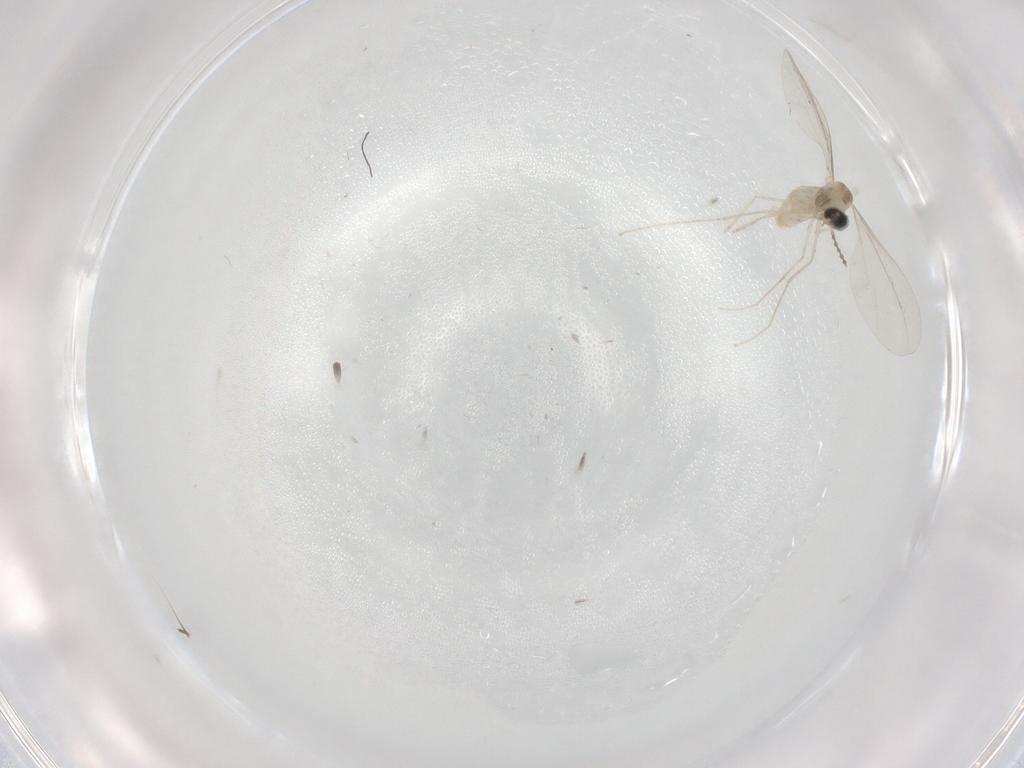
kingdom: Animalia
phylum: Arthropoda
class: Insecta
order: Diptera
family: Cecidomyiidae
